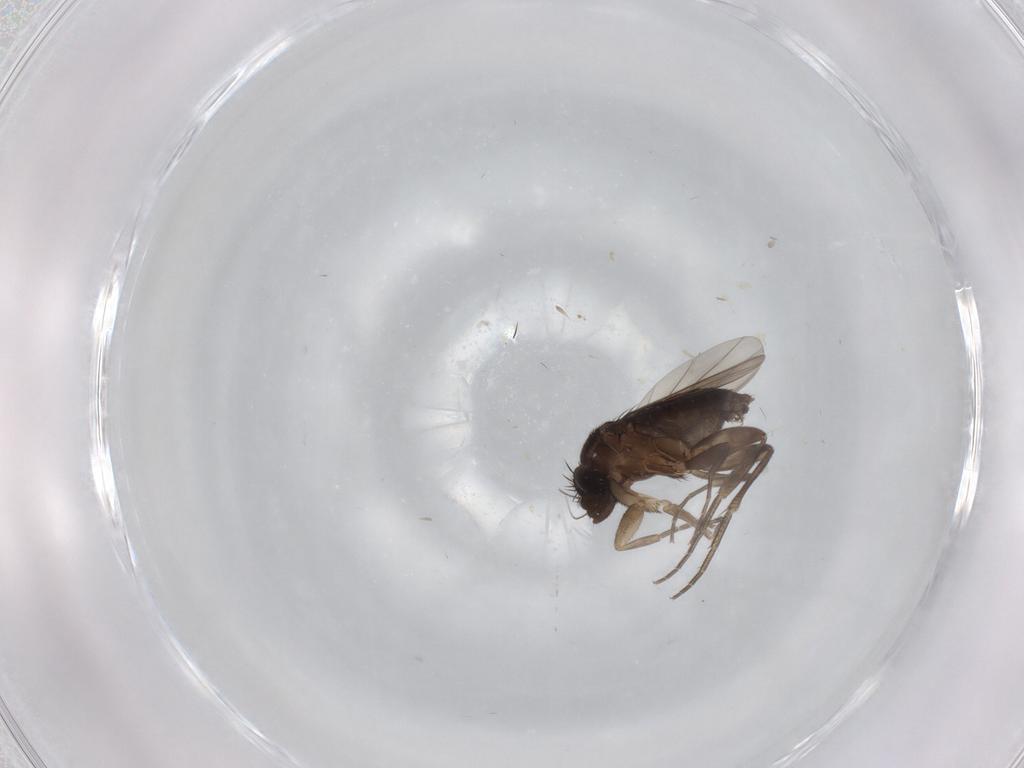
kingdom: Animalia
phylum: Arthropoda
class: Insecta
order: Diptera
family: Phoridae
